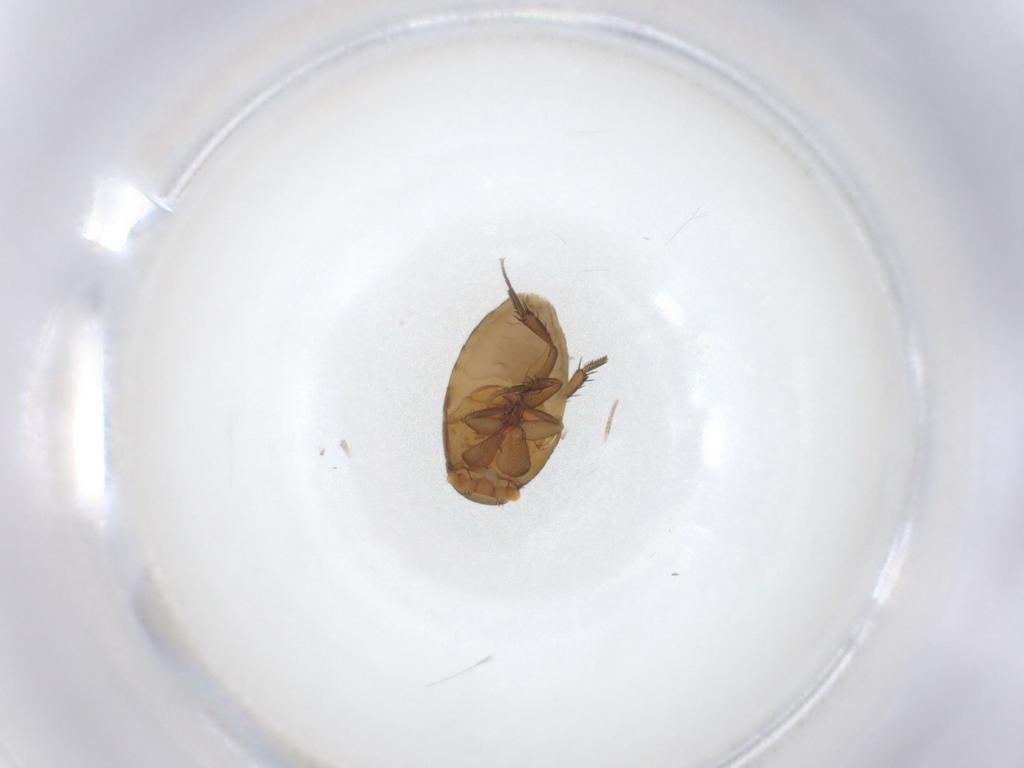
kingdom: Animalia
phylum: Arthropoda
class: Insecta
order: Diptera
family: Phoridae
